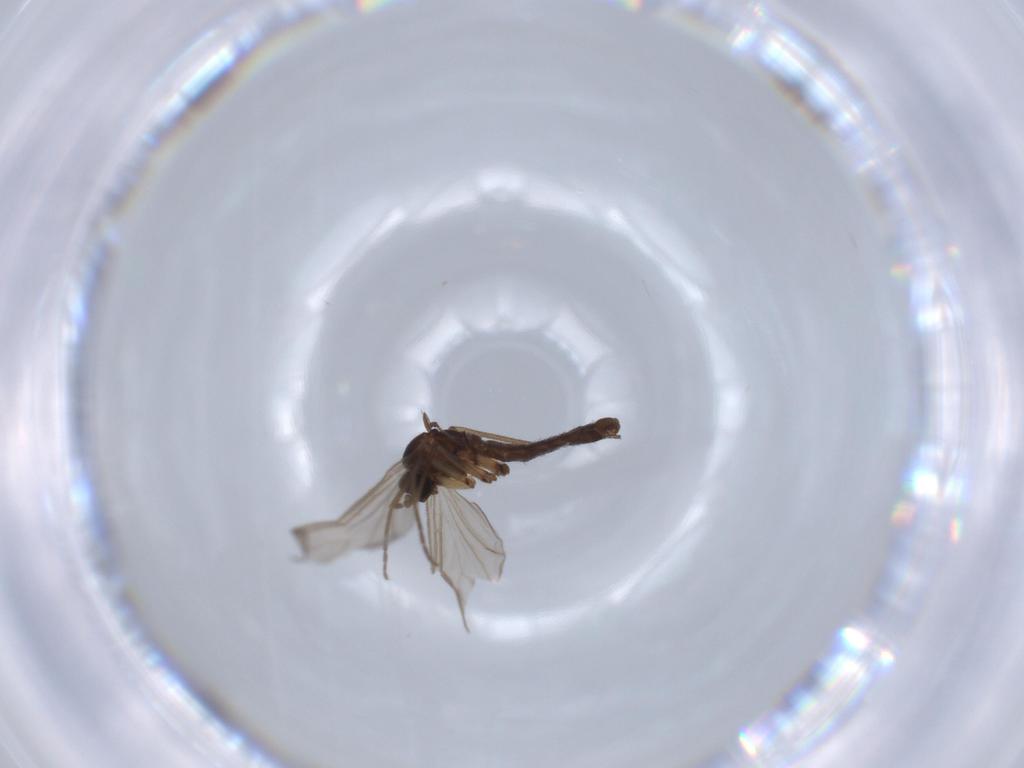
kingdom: Animalia
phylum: Arthropoda
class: Insecta
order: Diptera
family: Sciaridae
